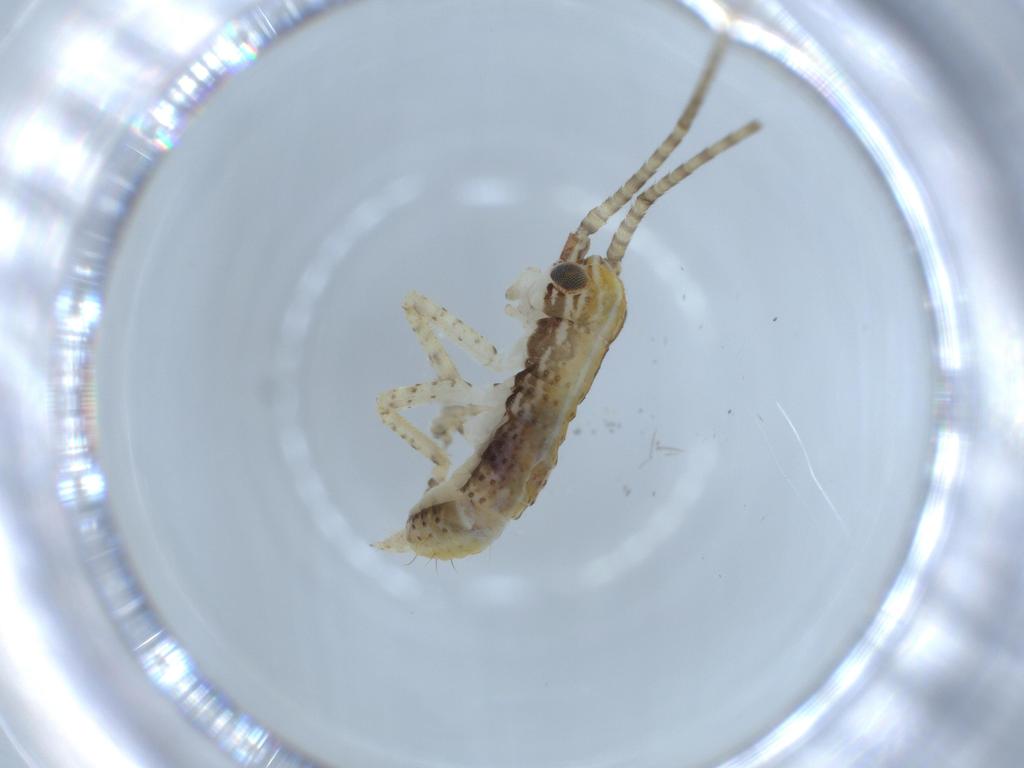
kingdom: Animalia
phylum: Arthropoda
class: Insecta
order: Orthoptera
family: Gryllidae
